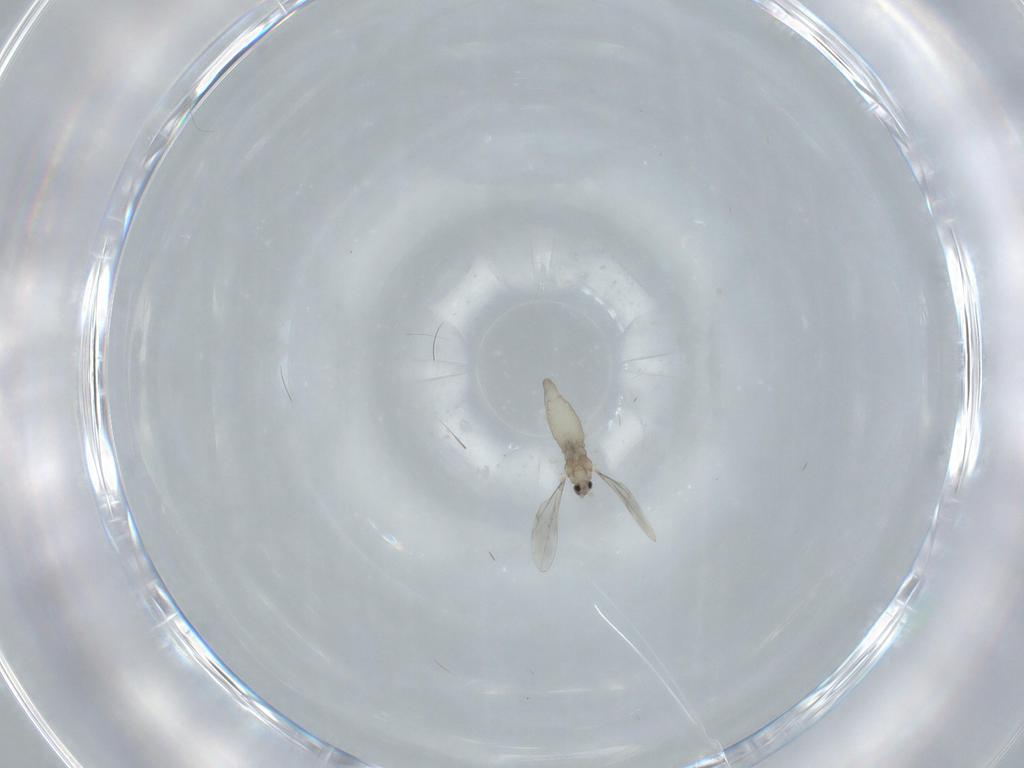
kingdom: Animalia
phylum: Arthropoda
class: Insecta
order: Diptera
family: Cecidomyiidae
